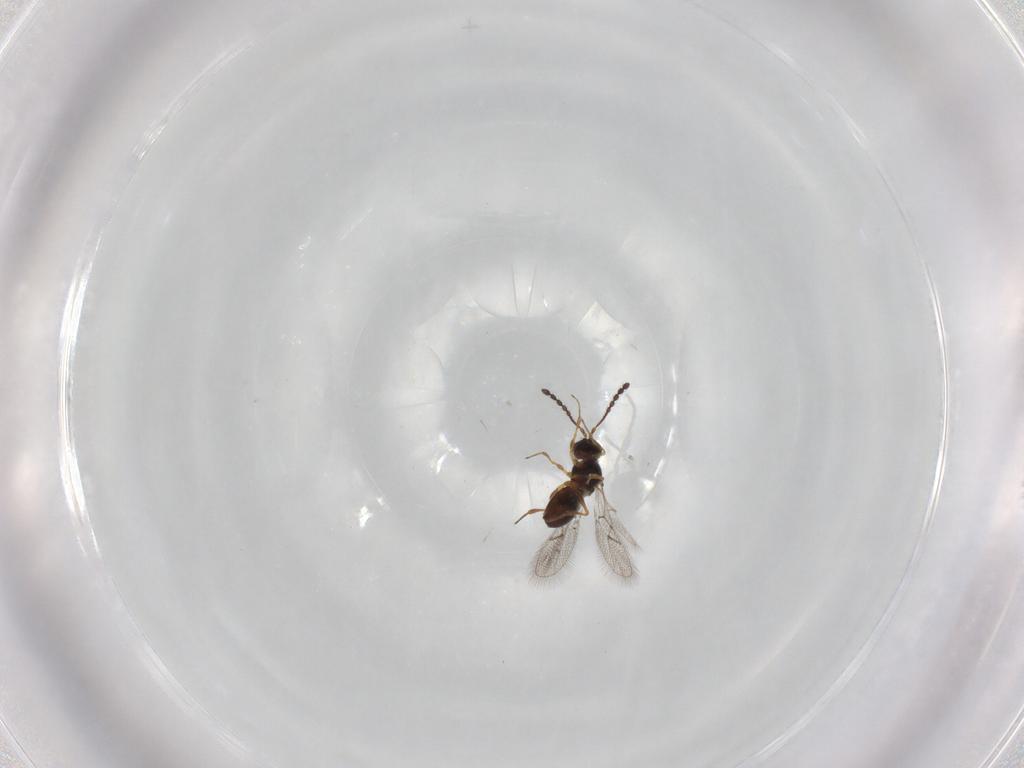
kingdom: Animalia
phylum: Arthropoda
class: Insecta
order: Hymenoptera
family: Figitidae
